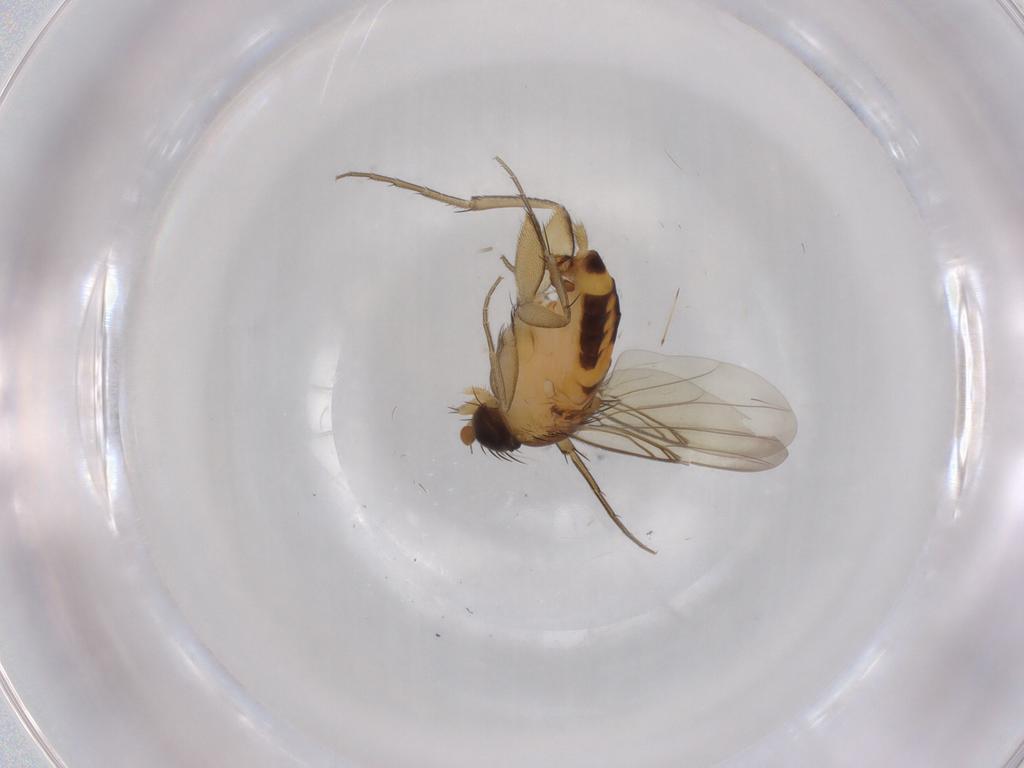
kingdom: Animalia
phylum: Arthropoda
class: Insecta
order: Diptera
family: Phoridae
